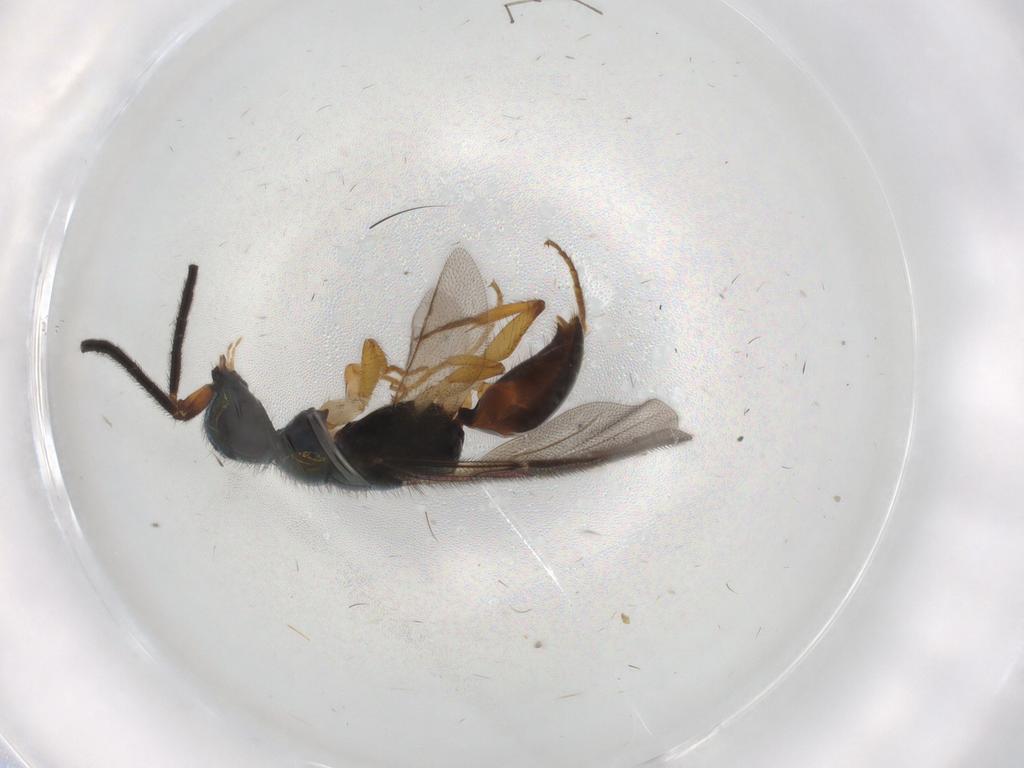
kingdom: Animalia
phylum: Arthropoda
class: Insecta
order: Hymenoptera
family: Chrysididae
